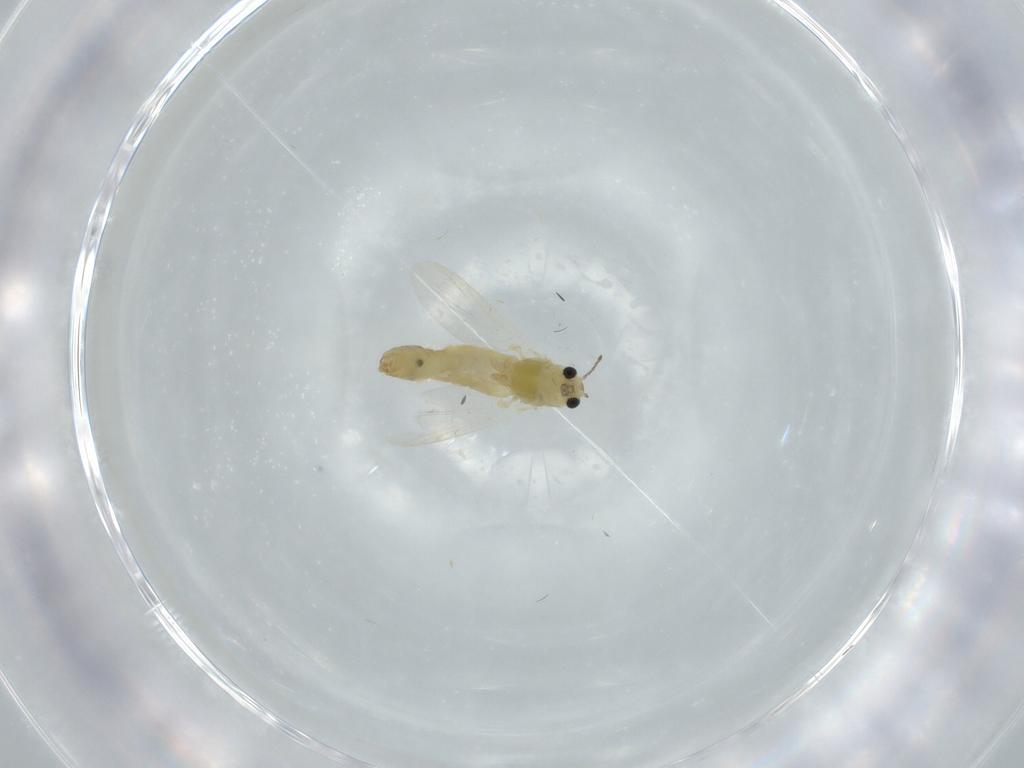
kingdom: Animalia
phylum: Arthropoda
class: Insecta
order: Diptera
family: Chironomidae
